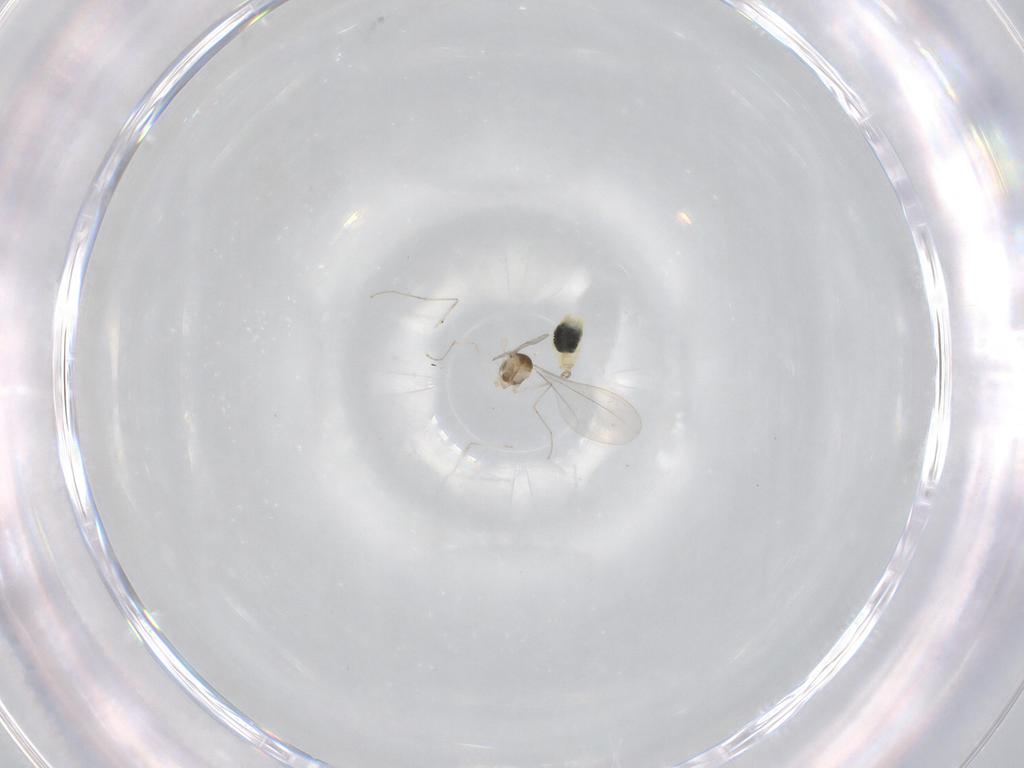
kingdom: Animalia
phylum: Arthropoda
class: Insecta
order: Diptera
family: Cecidomyiidae
